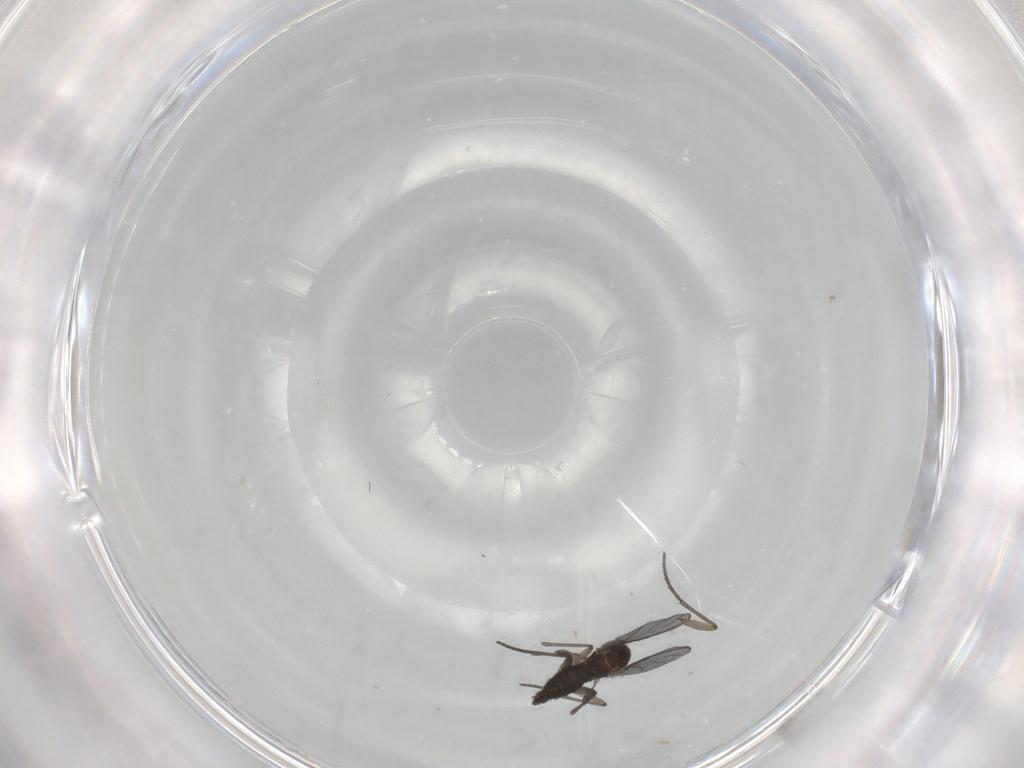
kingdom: Animalia
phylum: Arthropoda
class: Insecta
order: Diptera
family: Sciaridae
